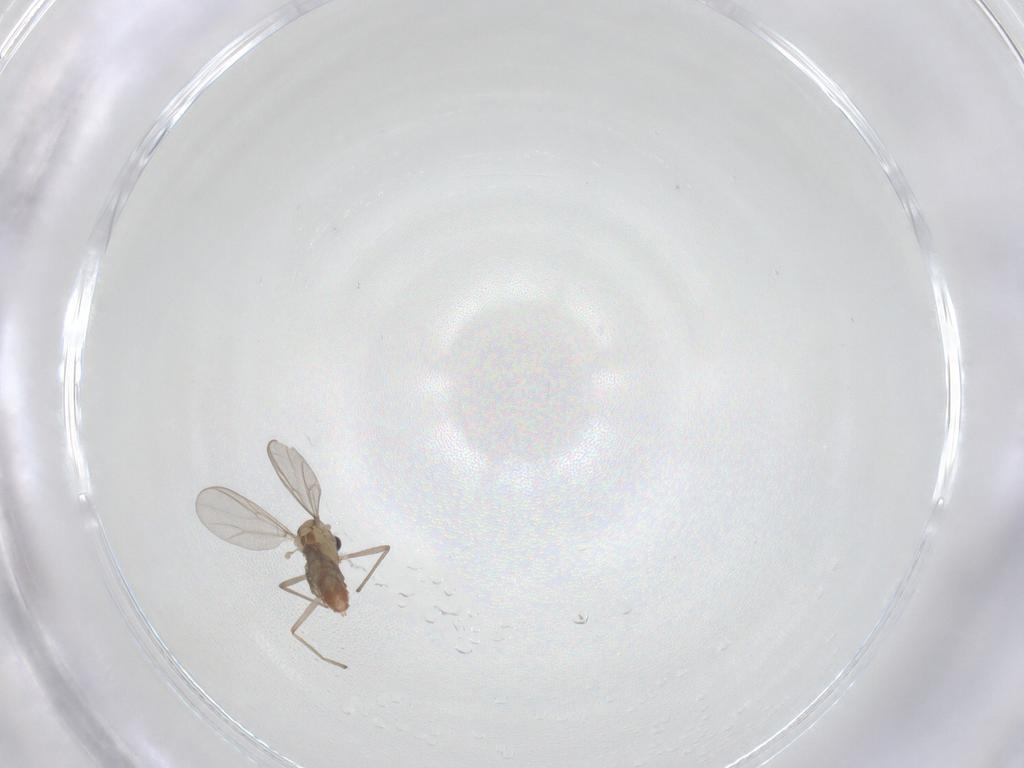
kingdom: Animalia
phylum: Arthropoda
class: Insecta
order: Diptera
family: Chironomidae
